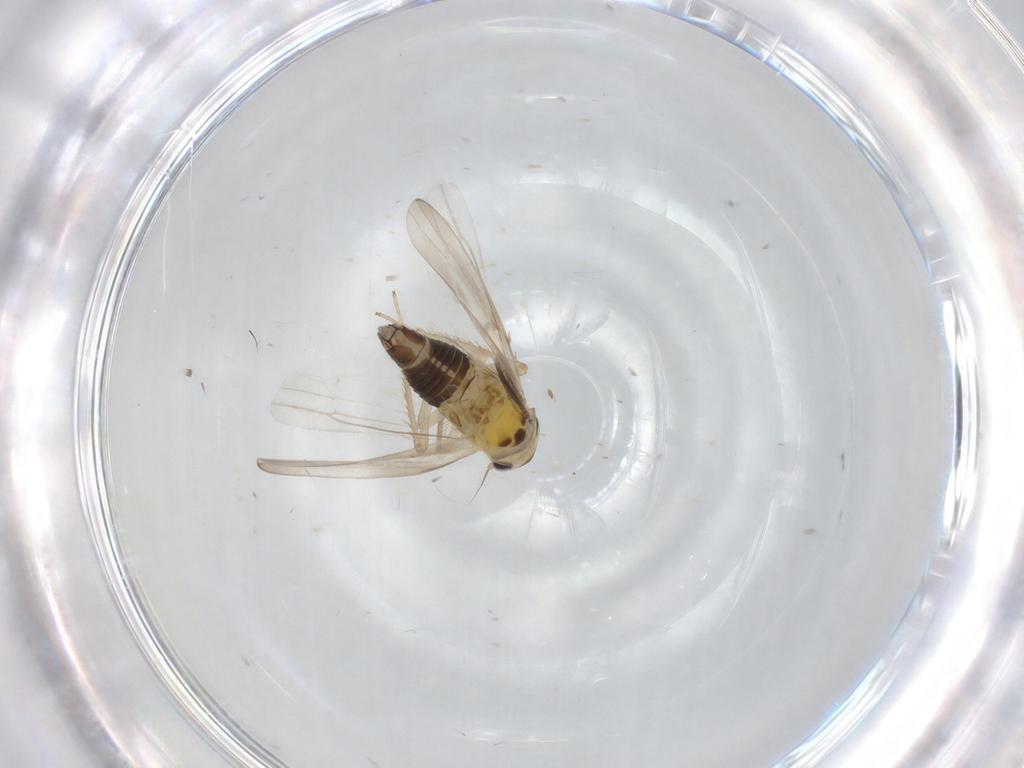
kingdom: Animalia
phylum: Arthropoda
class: Insecta
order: Hemiptera
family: Cicadellidae
